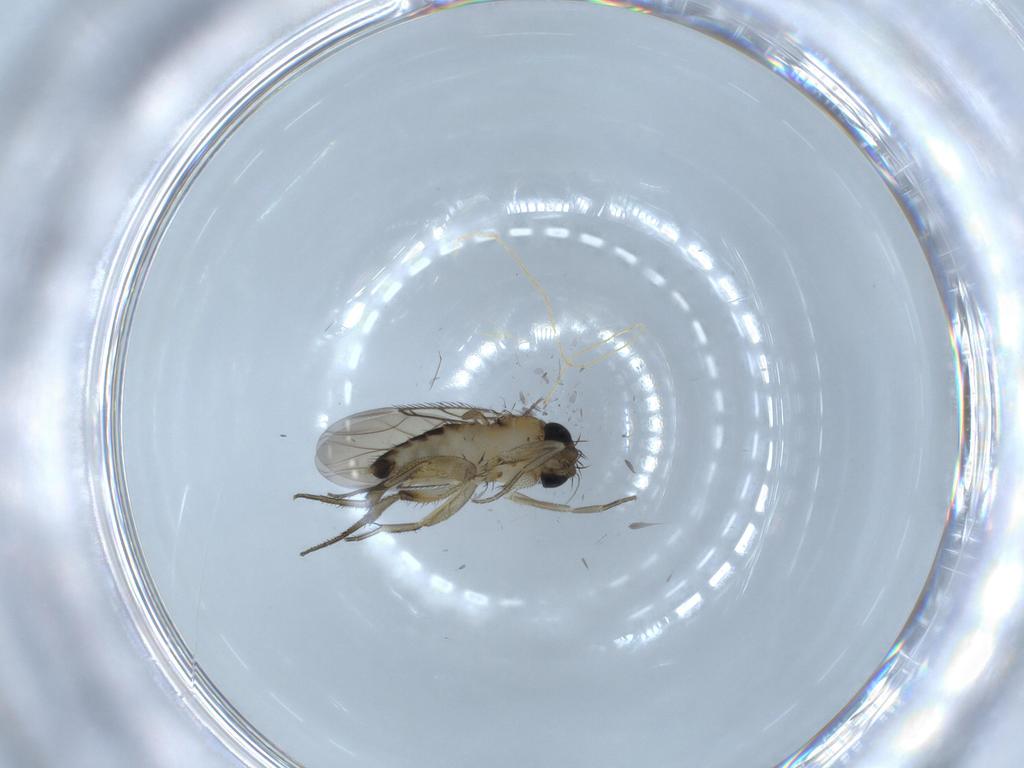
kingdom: Animalia
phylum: Arthropoda
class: Insecta
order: Diptera
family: Phoridae
